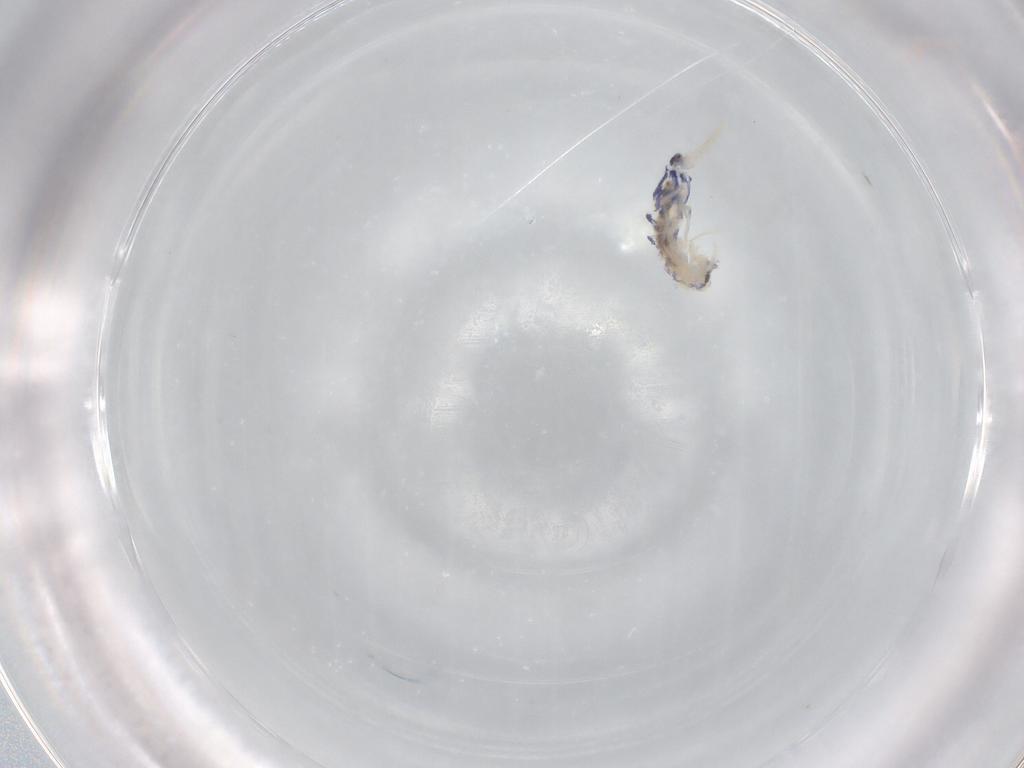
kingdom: Animalia
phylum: Arthropoda
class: Collembola
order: Entomobryomorpha
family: Entomobryidae
